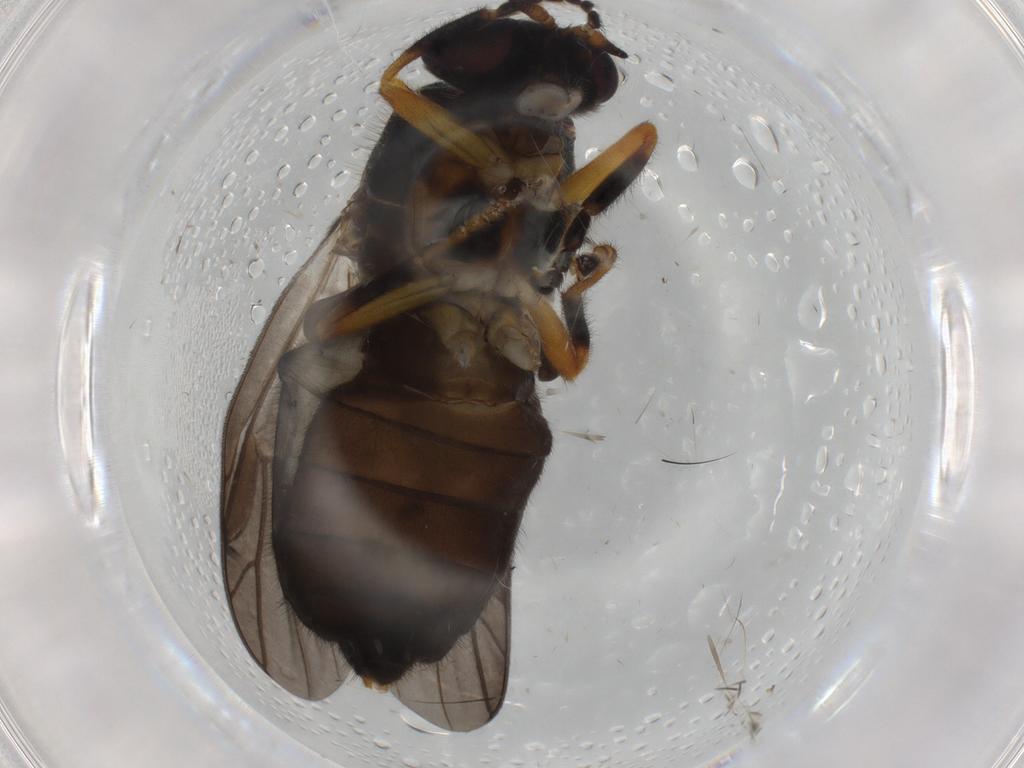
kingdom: Animalia
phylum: Arthropoda
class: Insecta
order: Diptera
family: Stratiomyidae
